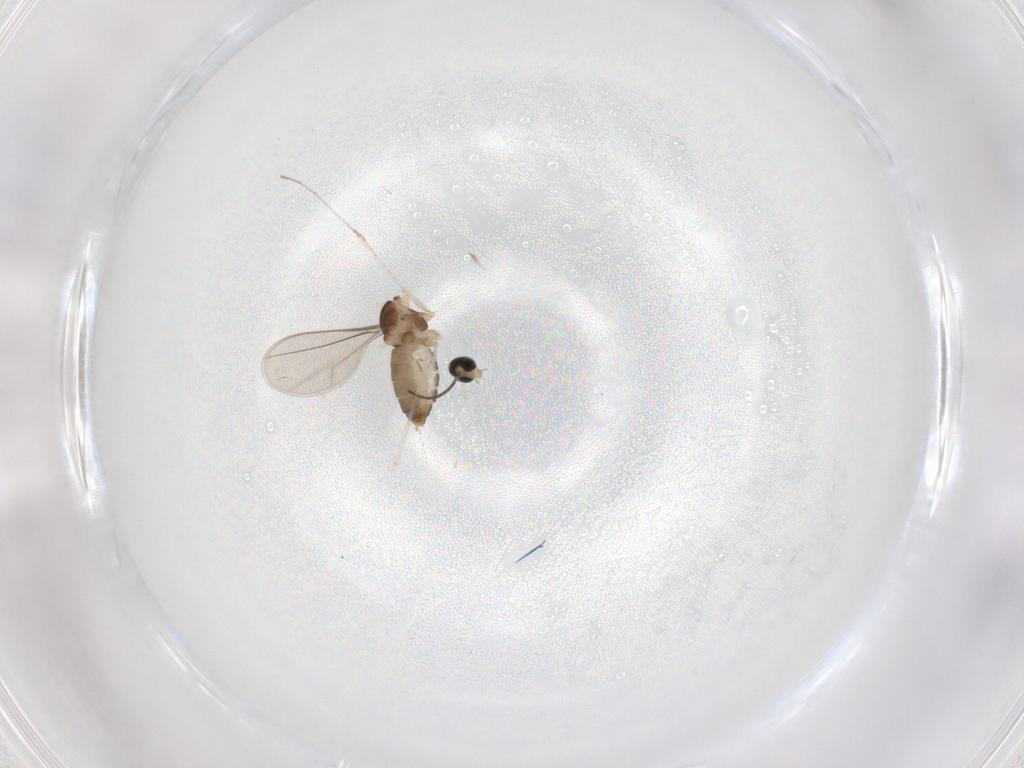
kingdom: Animalia
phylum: Arthropoda
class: Insecta
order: Diptera
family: Cecidomyiidae
